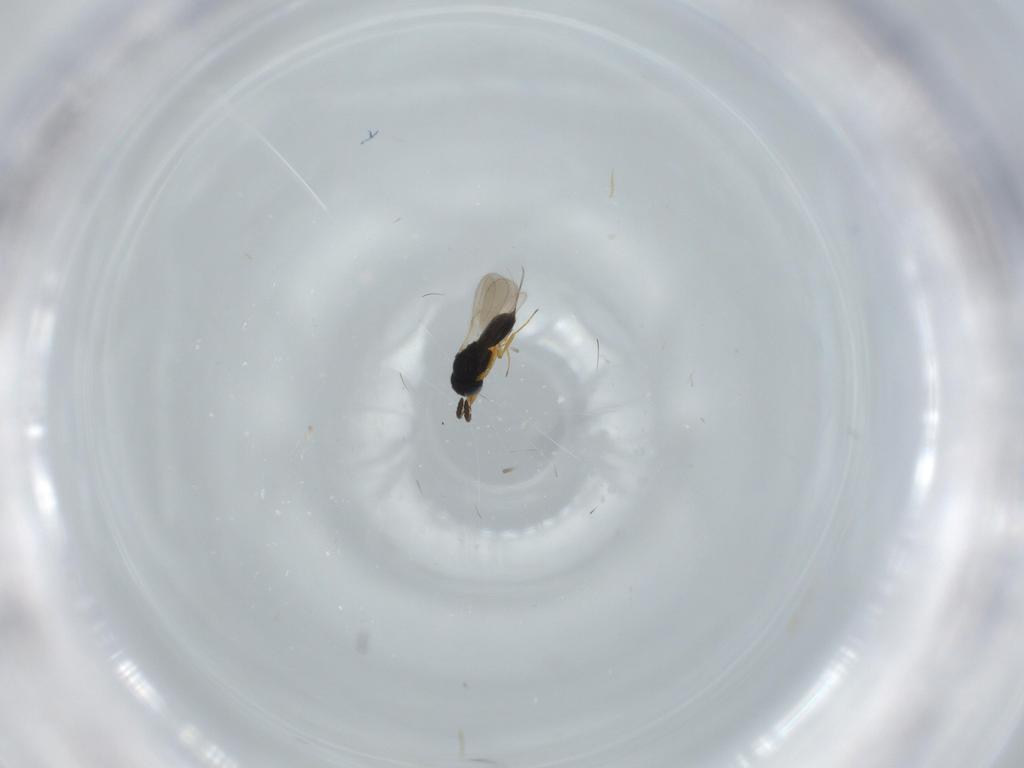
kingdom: Animalia
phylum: Arthropoda
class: Insecta
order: Hymenoptera
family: Scelionidae
